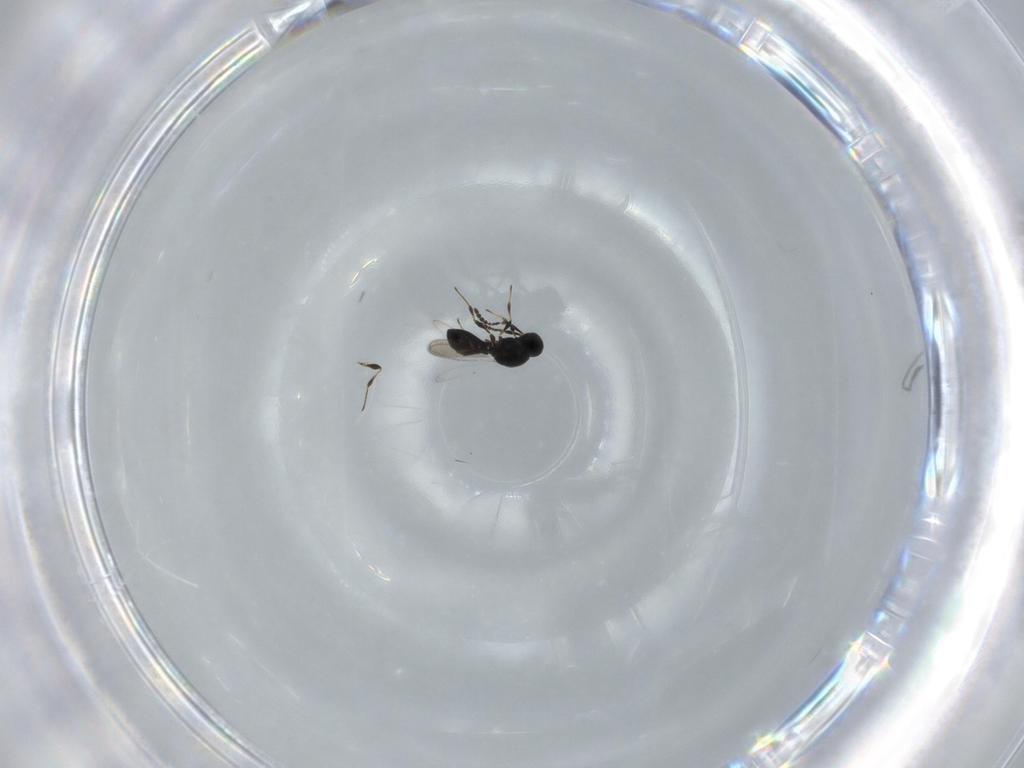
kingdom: Animalia
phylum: Arthropoda
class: Insecta
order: Hymenoptera
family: Platygastridae
